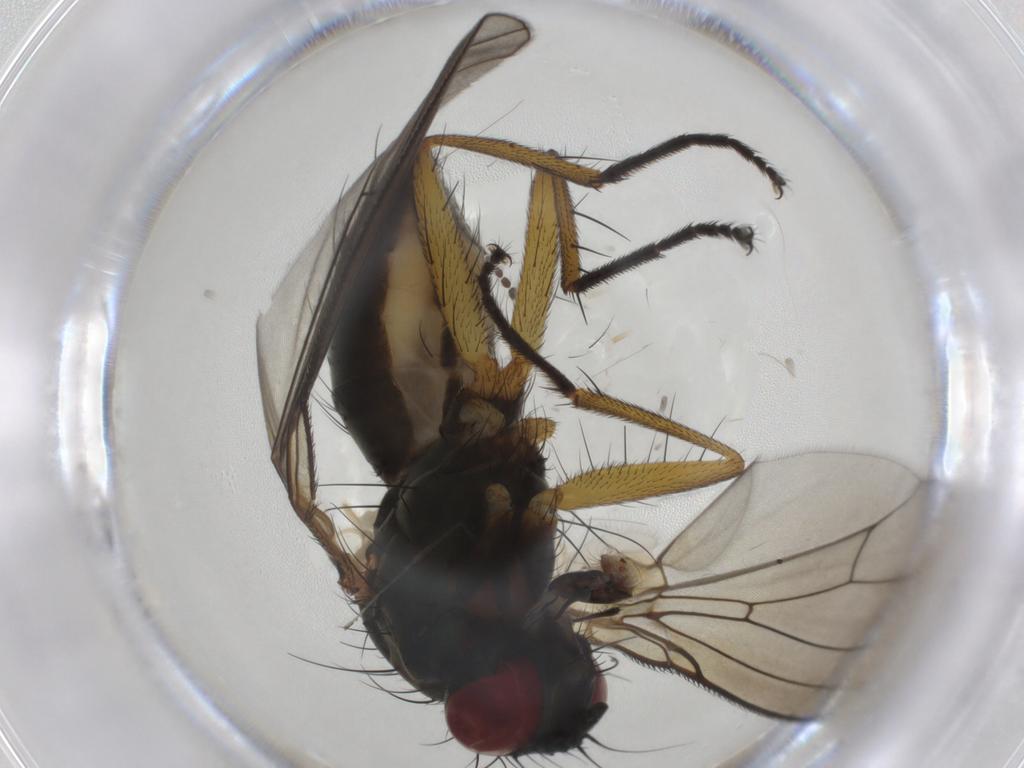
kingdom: Animalia
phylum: Arthropoda
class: Insecta
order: Diptera
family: Muscidae
